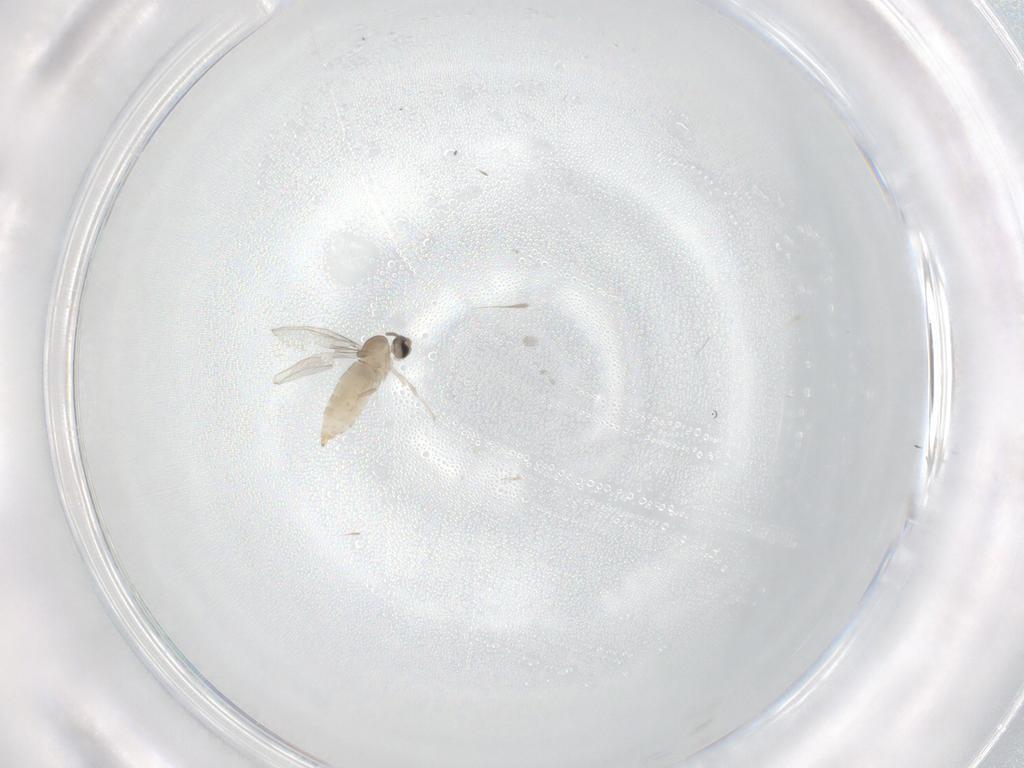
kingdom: Animalia
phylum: Arthropoda
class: Insecta
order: Diptera
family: Cecidomyiidae
